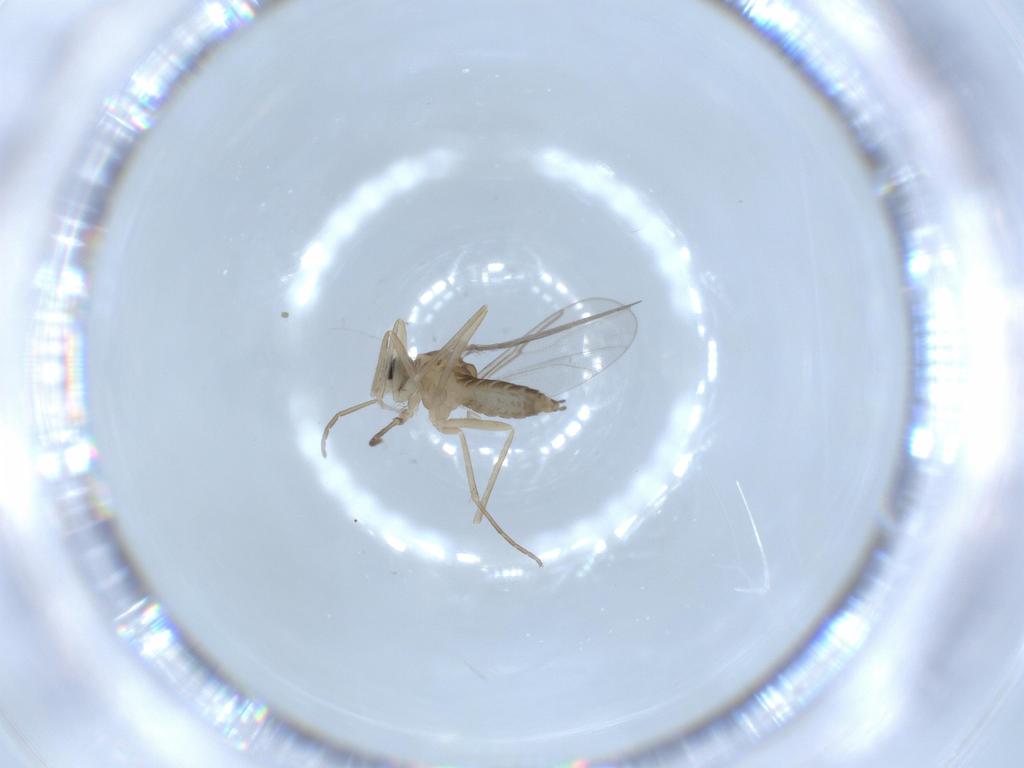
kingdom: Animalia
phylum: Arthropoda
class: Insecta
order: Diptera
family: Cecidomyiidae
